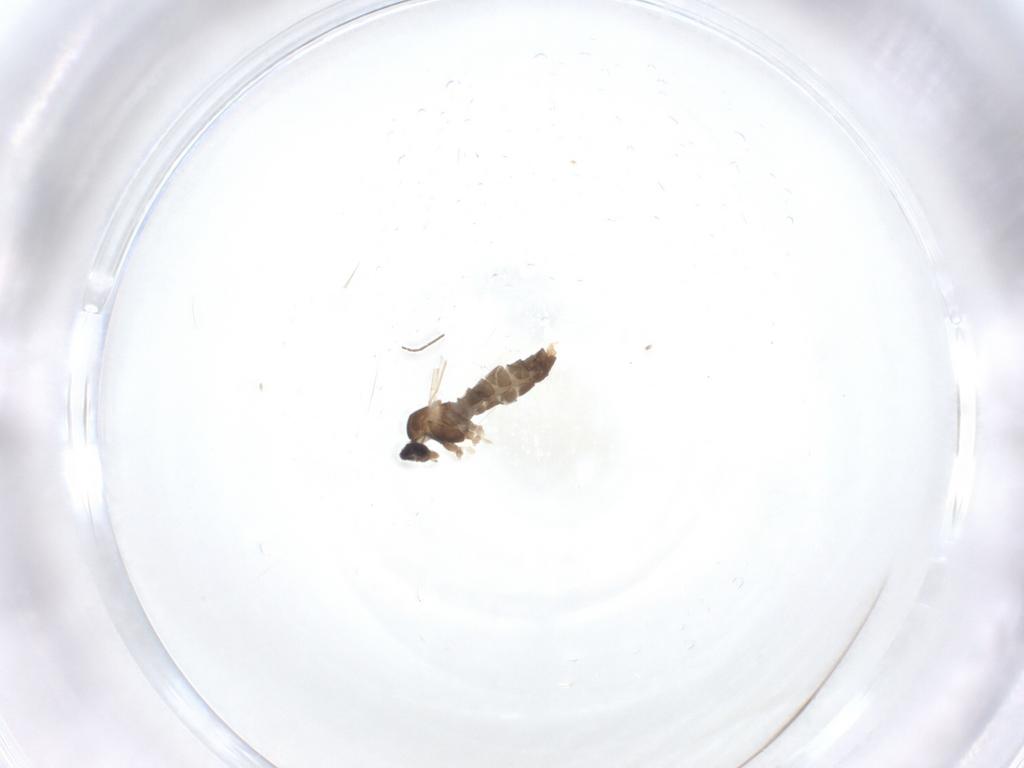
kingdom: Animalia
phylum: Arthropoda
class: Insecta
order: Diptera
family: Cecidomyiidae
